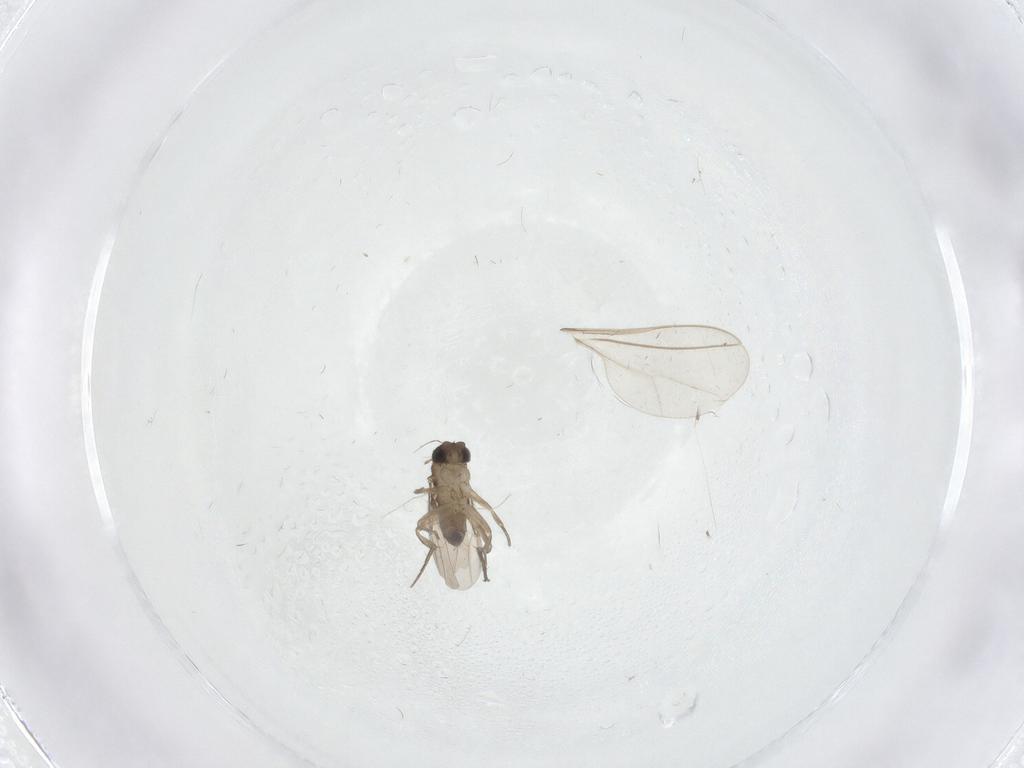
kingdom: Animalia
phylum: Arthropoda
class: Insecta
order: Diptera
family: Phoridae
